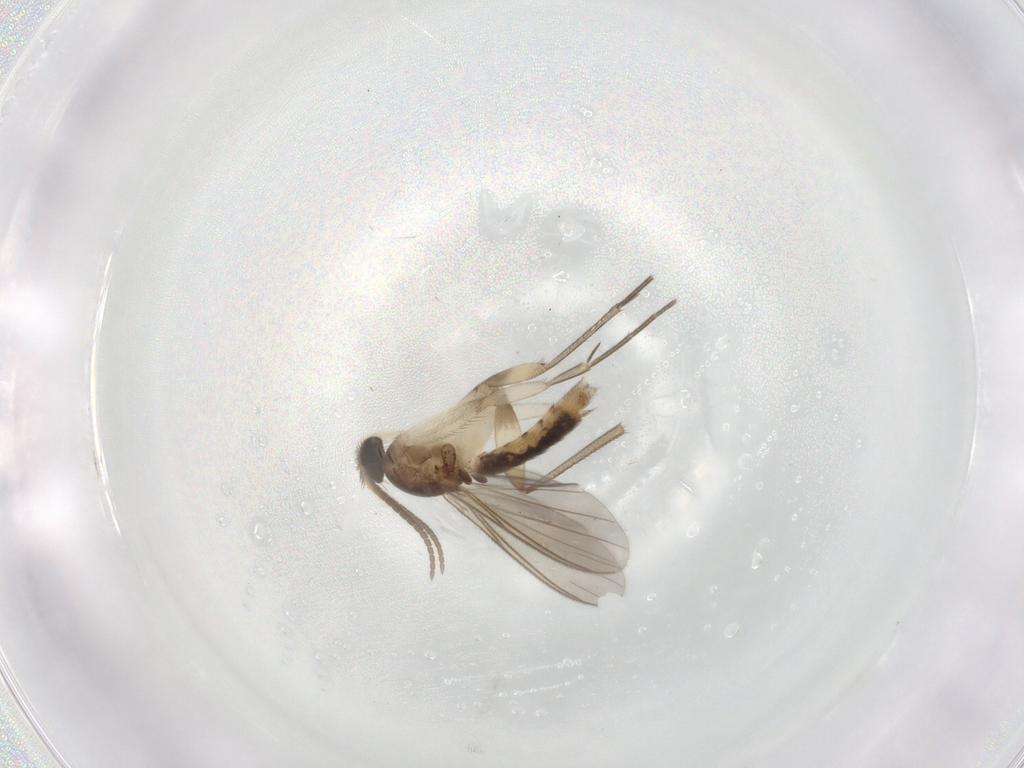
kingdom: Animalia
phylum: Arthropoda
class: Insecta
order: Diptera
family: Mycetophilidae
